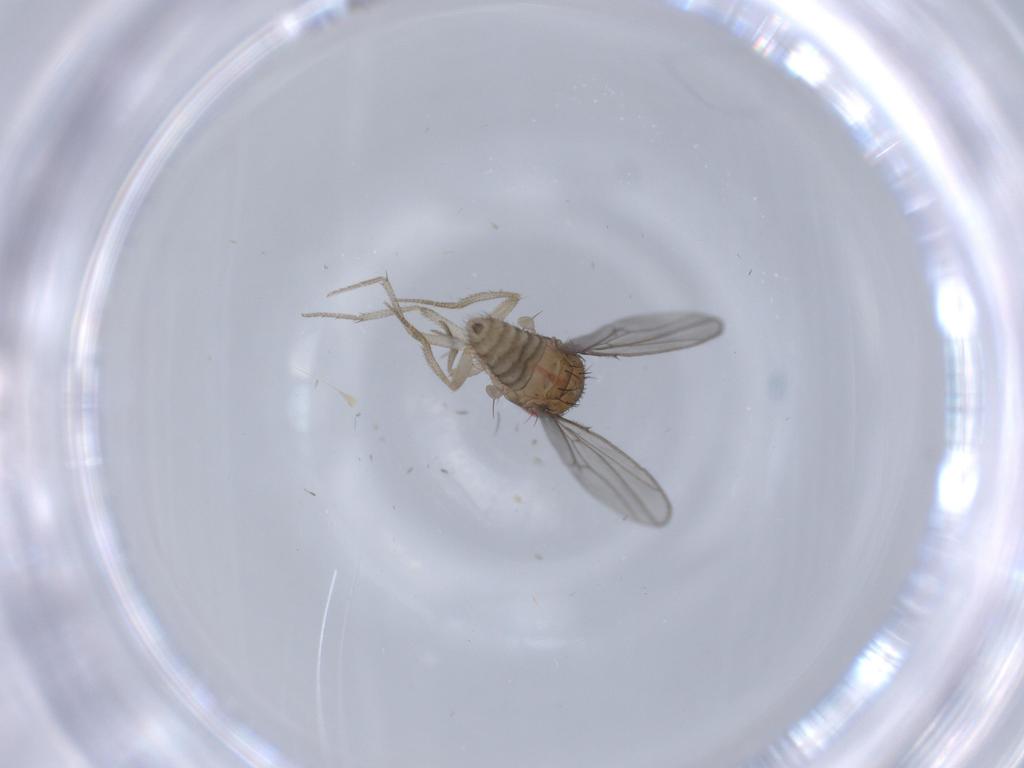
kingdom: Animalia
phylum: Arthropoda
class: Insecta
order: Diptera
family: Drosophilidae
